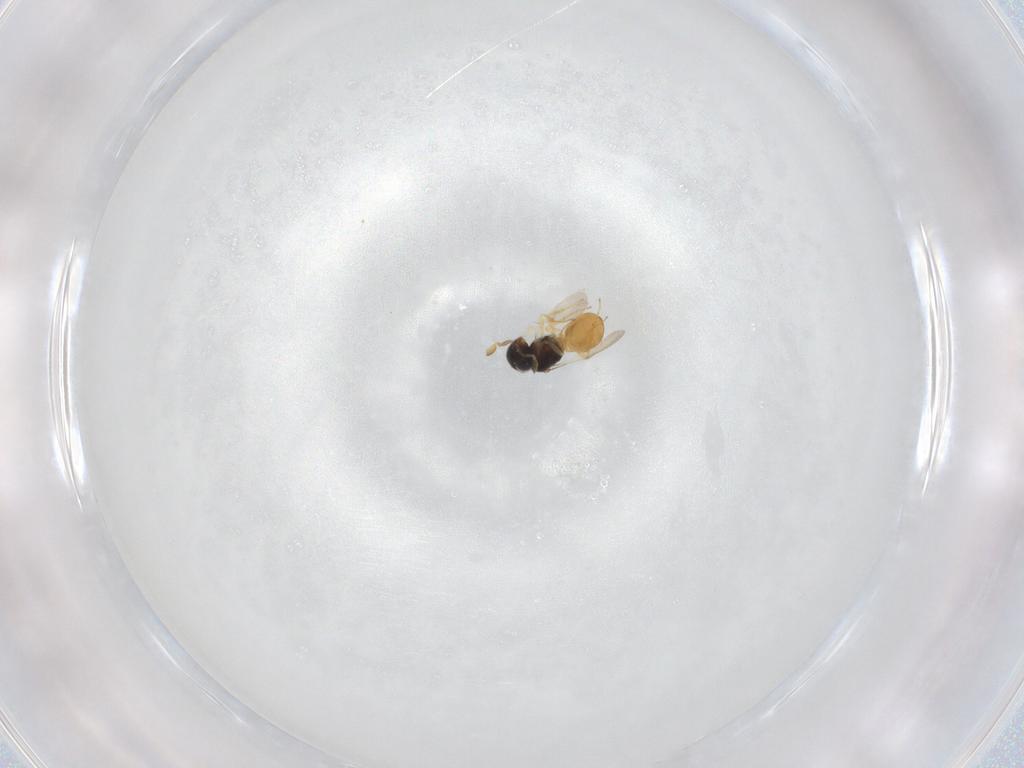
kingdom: Animalia
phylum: Arthropoda
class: Insecta
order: Hymenoptera
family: Scelionidae
